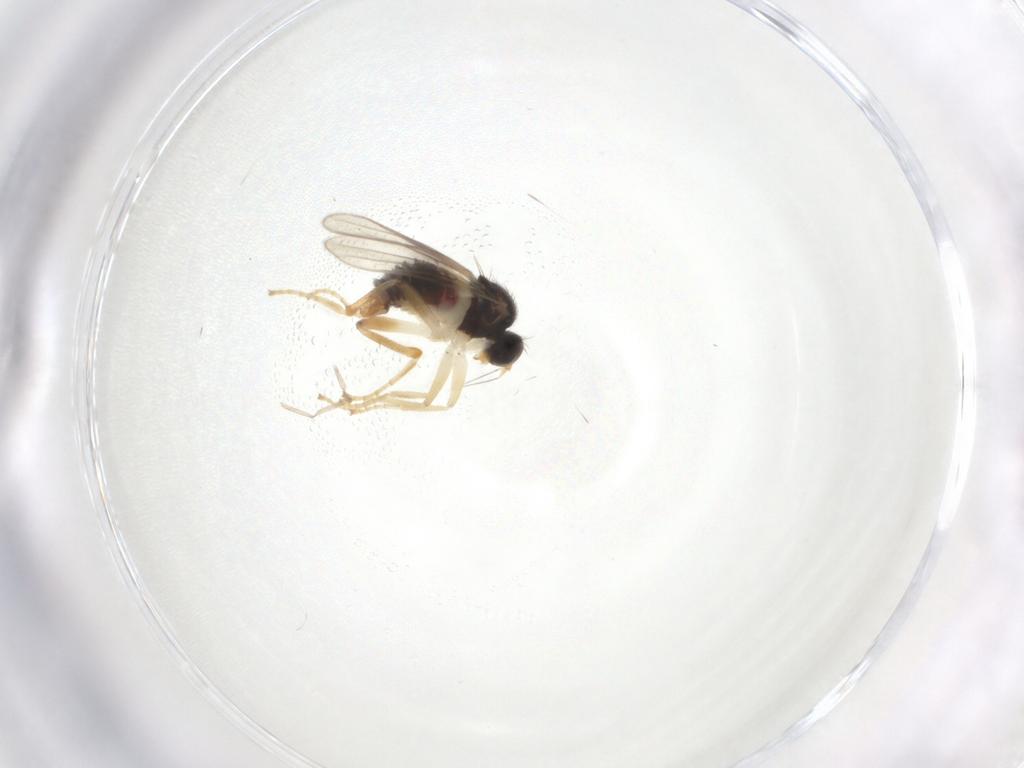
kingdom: Animalia
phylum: Arthropoda
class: Insecta
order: Diptera
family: Hybotidae
